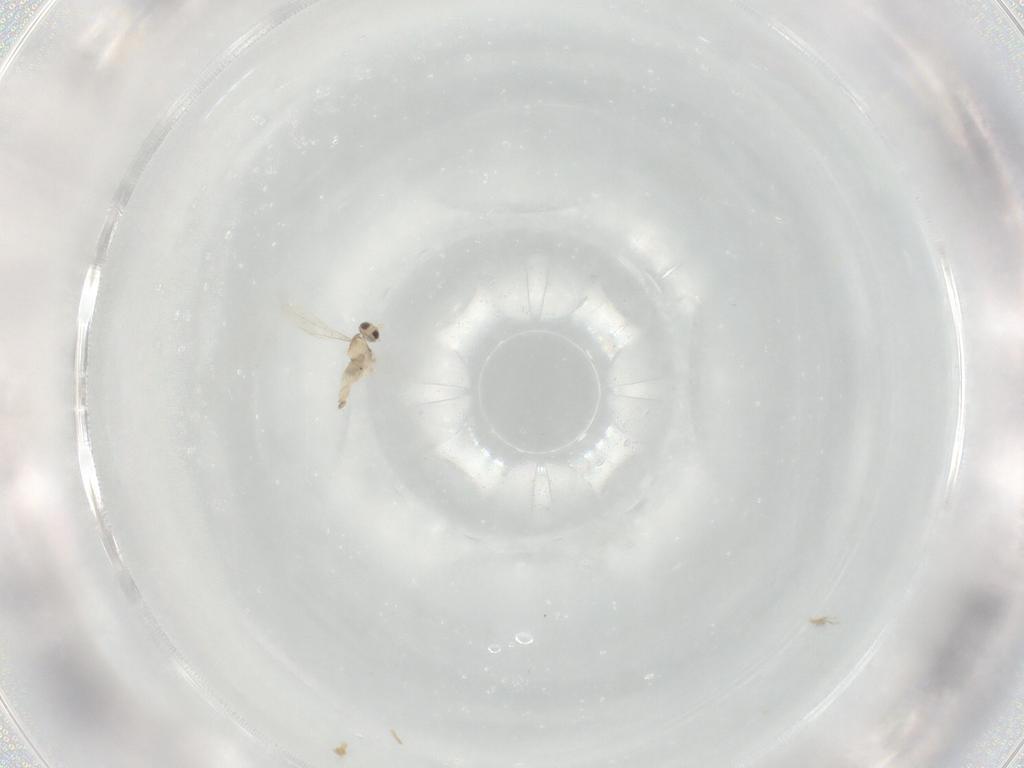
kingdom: Animalia
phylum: Arthropoda
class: Insecta
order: Diptera
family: Cecidomyiidae
